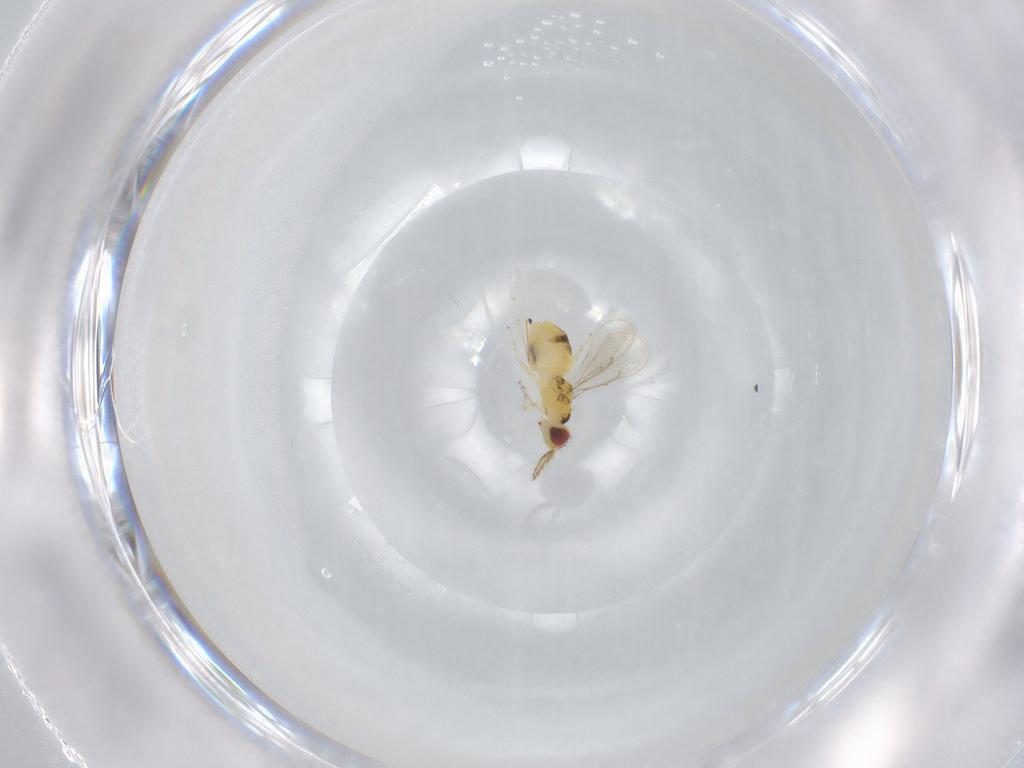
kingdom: Animalia
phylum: Arthropoda
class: Insecta
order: Hymenoptera
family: Eulophidae
